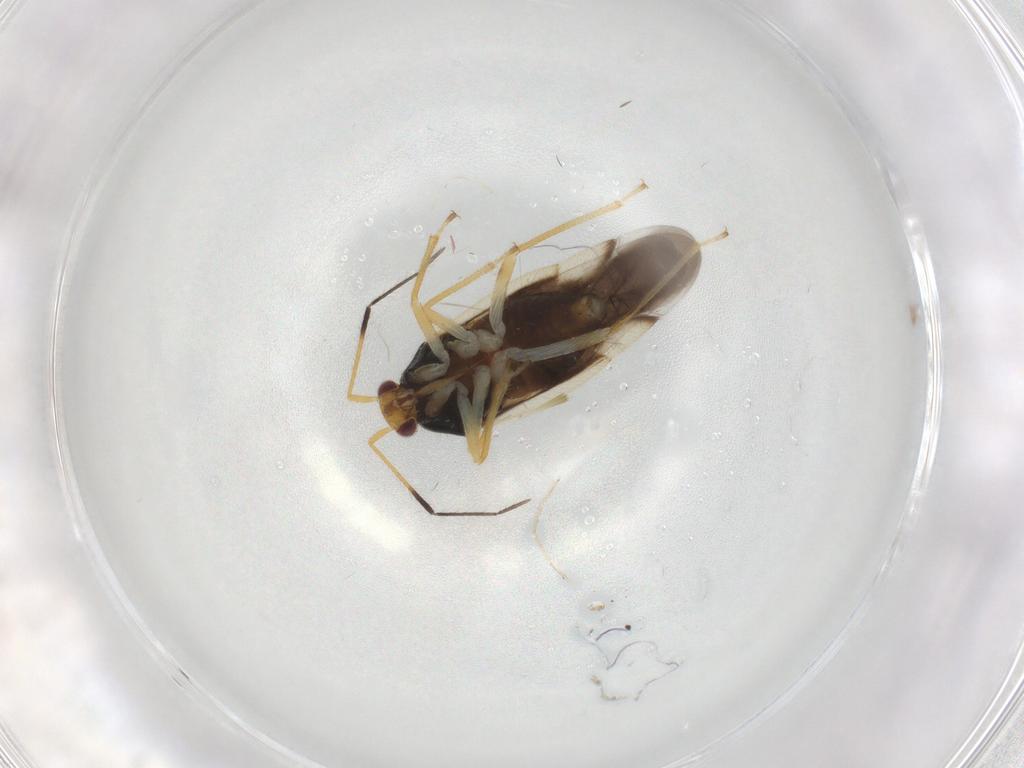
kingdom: Animalia
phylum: Arthropoda
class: Insecta
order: Hemiptera
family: Miridae
